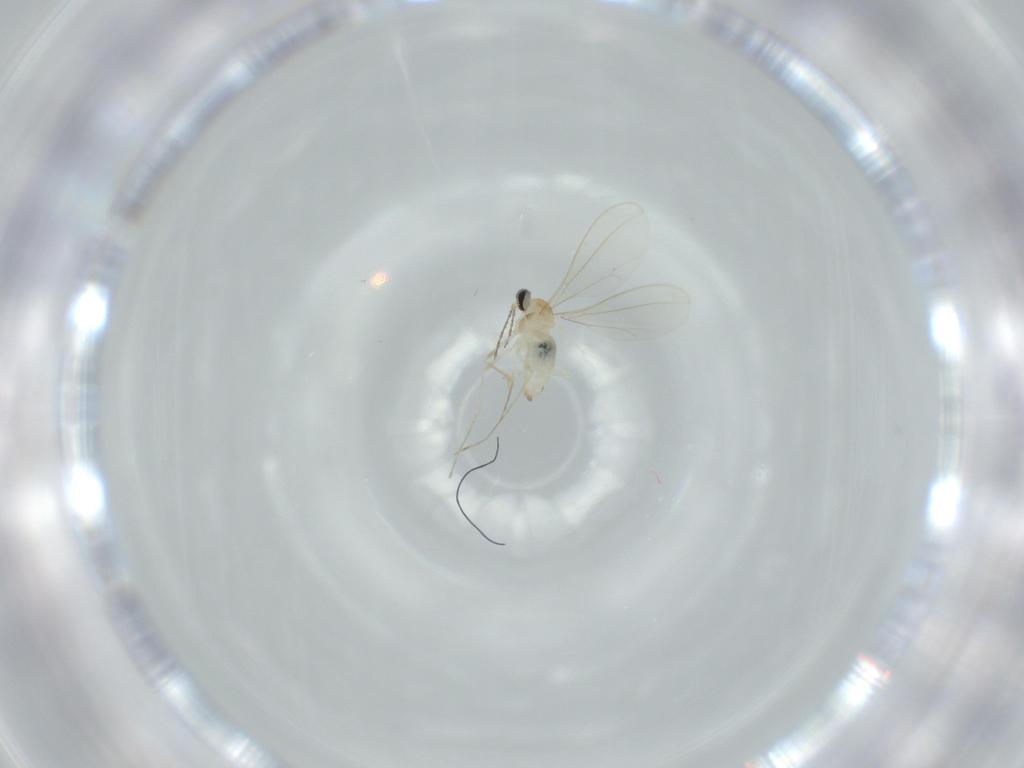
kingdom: Animalia
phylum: Arthropoda
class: Insecta
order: Diptera
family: Cecidomyiidae
